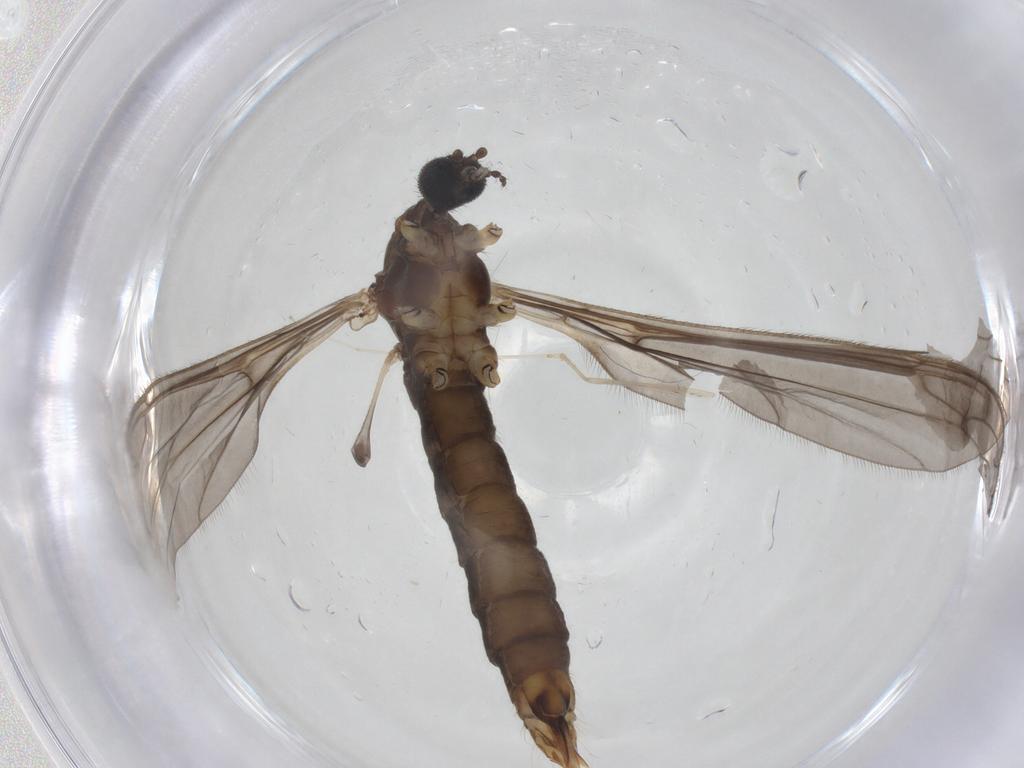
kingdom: Animalia
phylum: Arthropoda
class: Insecta
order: Diptera
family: Limoniidae
